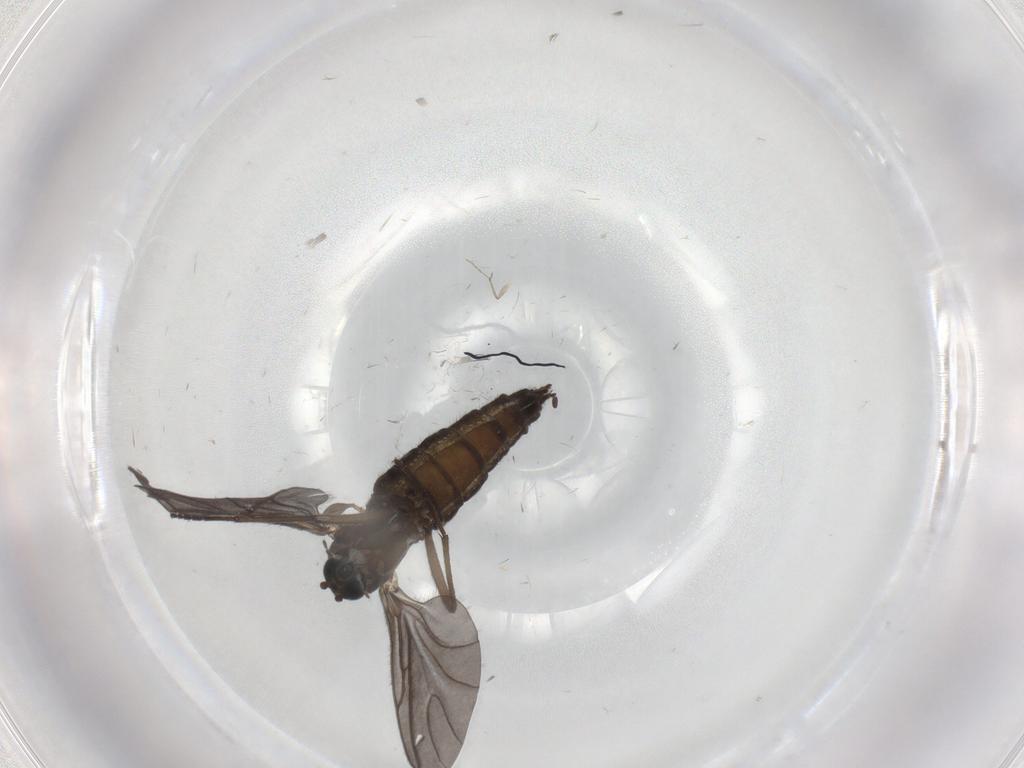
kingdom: Animalia
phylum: Arthropoda
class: Insecta
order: Diptera
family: Sciaridae
